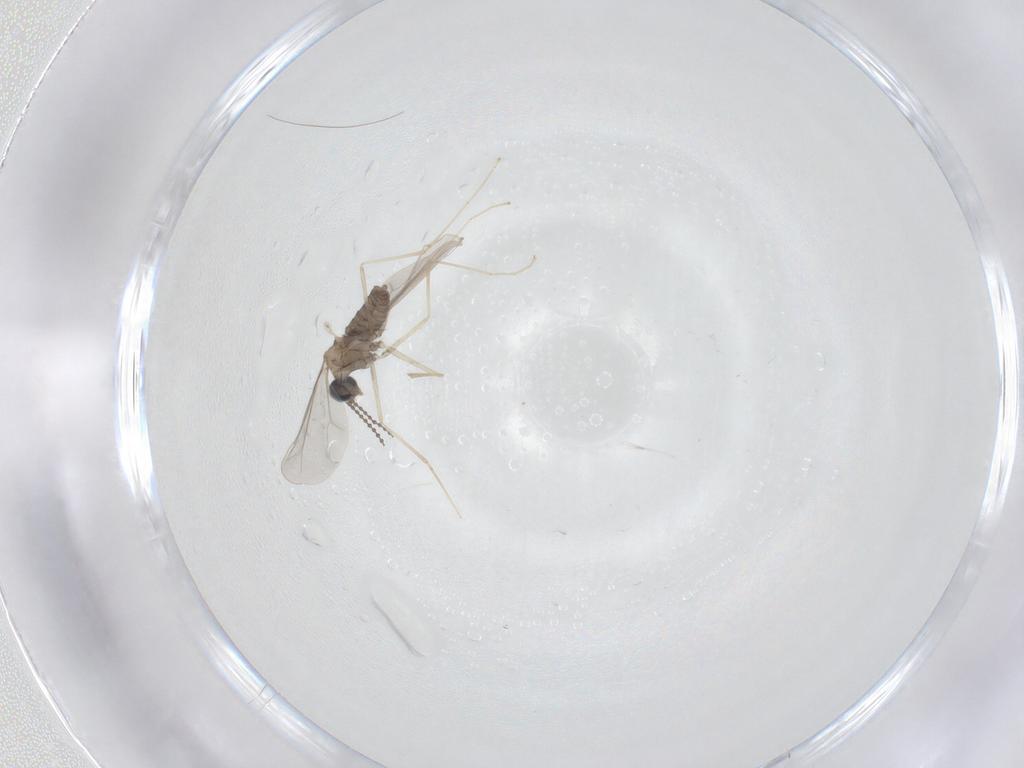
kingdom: Animalia
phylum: Arthropoda
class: Insecta
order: Diptera
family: Cecidomyiidae
